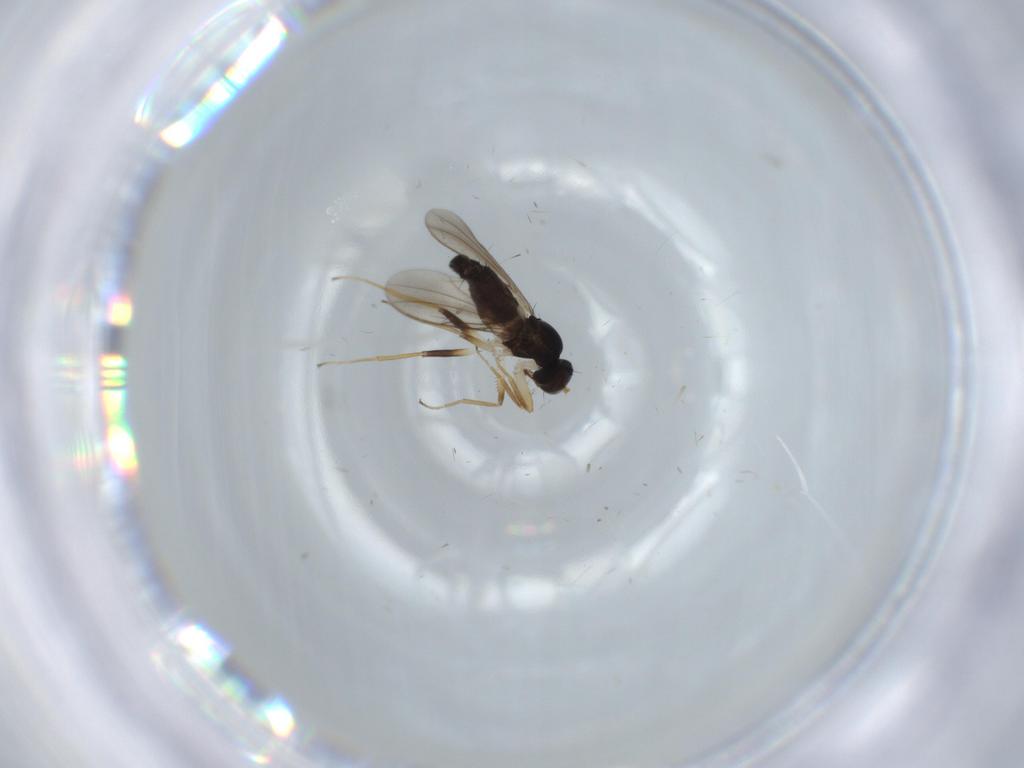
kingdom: Animalia
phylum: Arthropoda
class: Insecta
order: Diptera
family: Hybotidae
